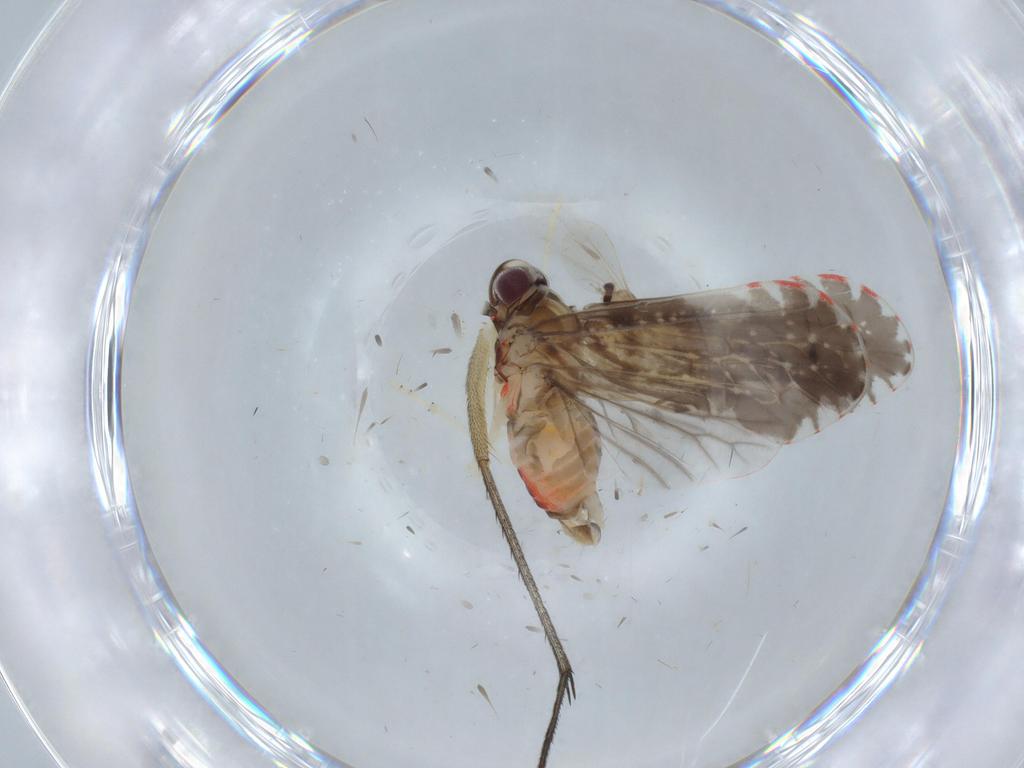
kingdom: Animalia
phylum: Arthropoda
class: Insecta
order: Hemiptera
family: Derbidae
